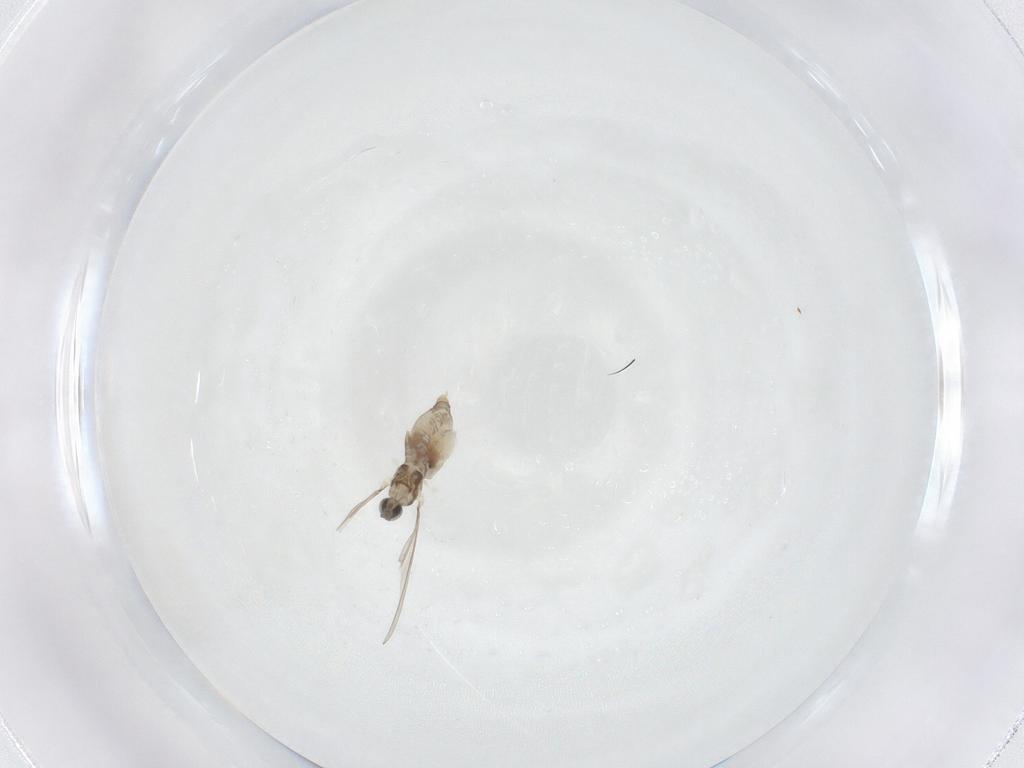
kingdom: Animalia
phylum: Arthropoda
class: Insecta
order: Diptera
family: Cecidomyiidae
